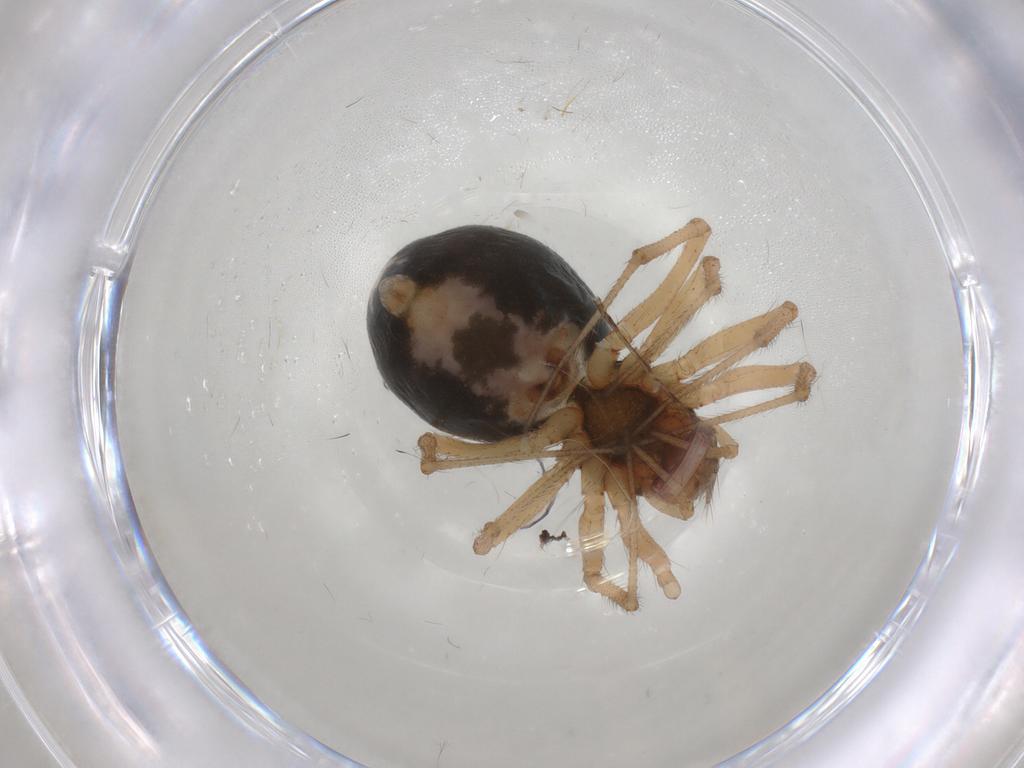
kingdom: Animalia
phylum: Arthropoda
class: Arachnida
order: Araneae
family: Linyphiidae
